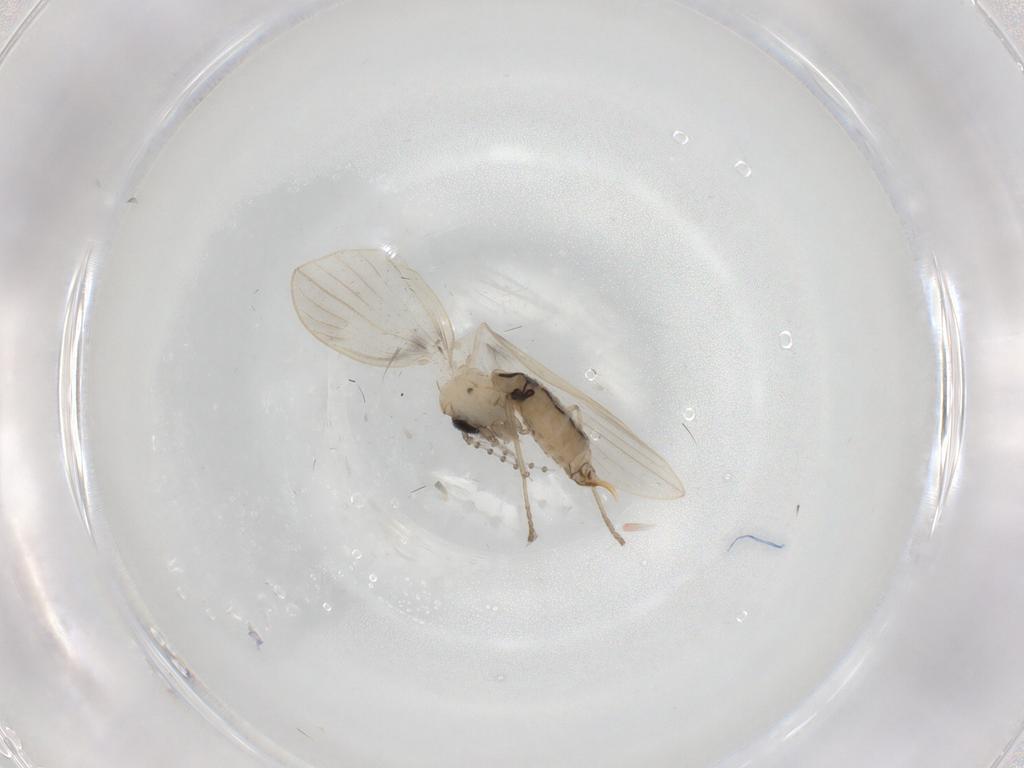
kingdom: Animalia
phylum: Arthropoda
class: Insecta
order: Diptera
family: Psychodidae
